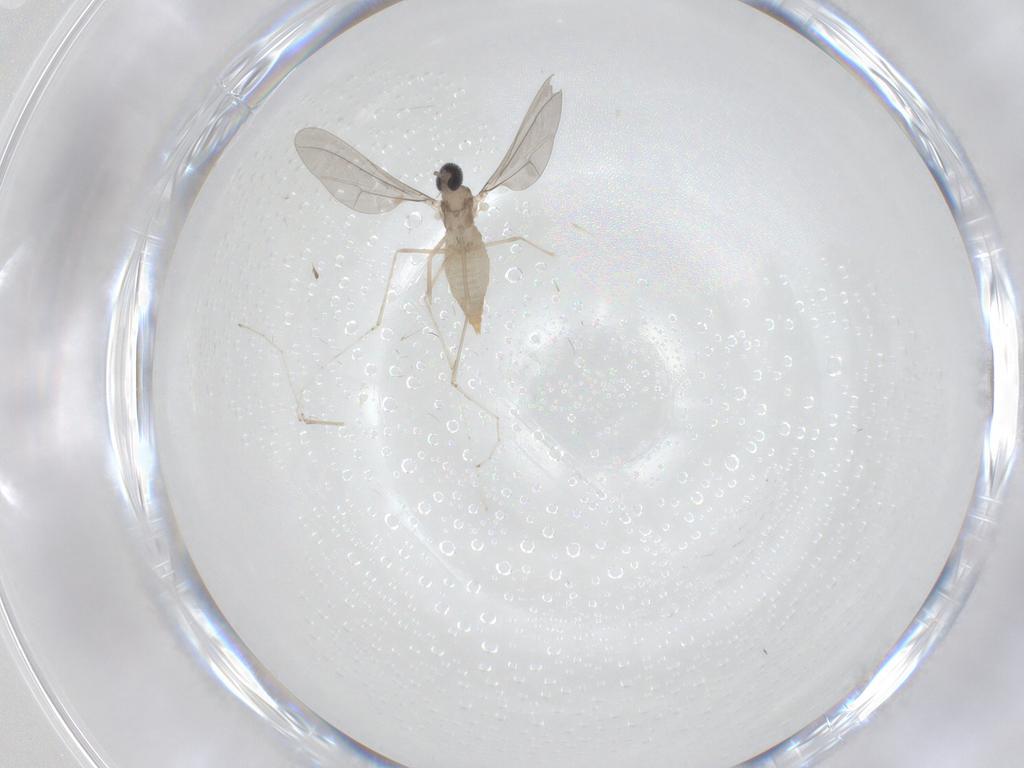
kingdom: Animalia
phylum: Arthropoda
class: Insecta
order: Diptera
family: Cecidomyiidae
